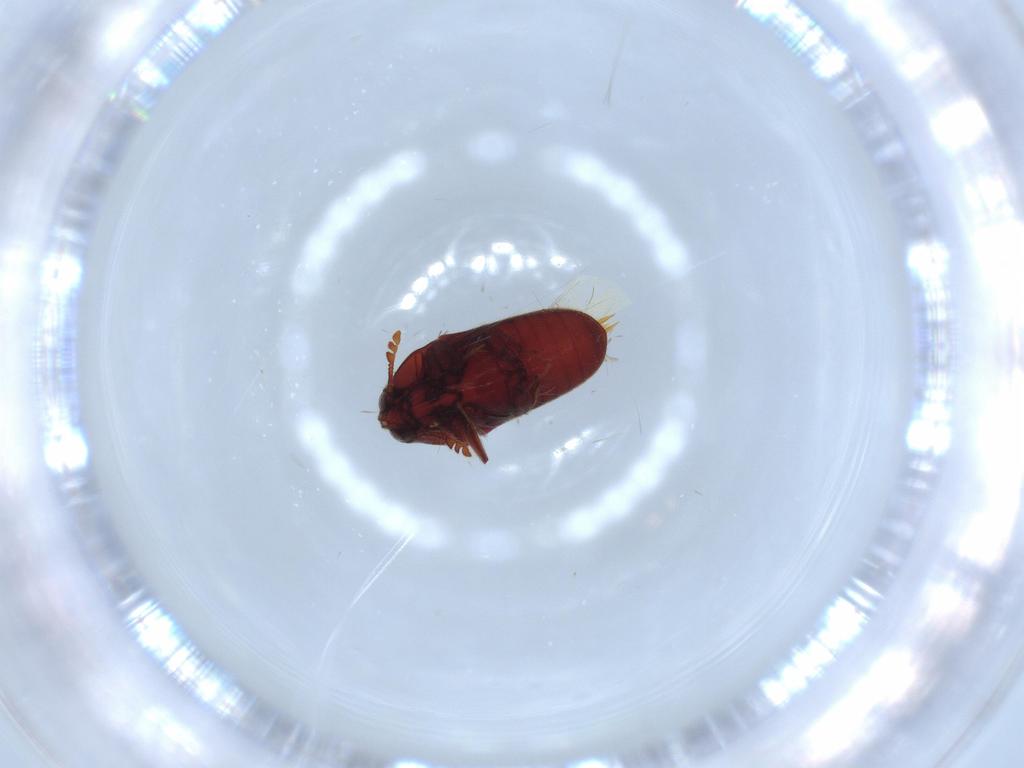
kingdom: Animalia
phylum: Arthropoda
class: Insecta
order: Coleoptera
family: Throscidae
